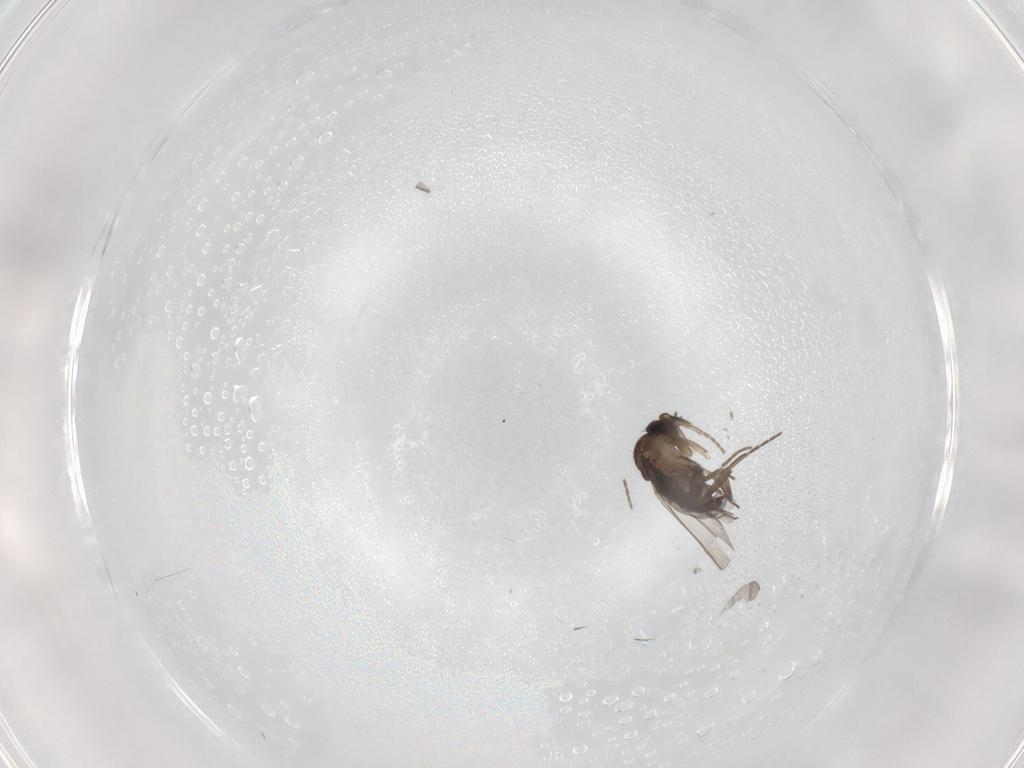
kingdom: Animalia
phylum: Arthropoda
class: Insecta
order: Diptera
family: Phoridae
